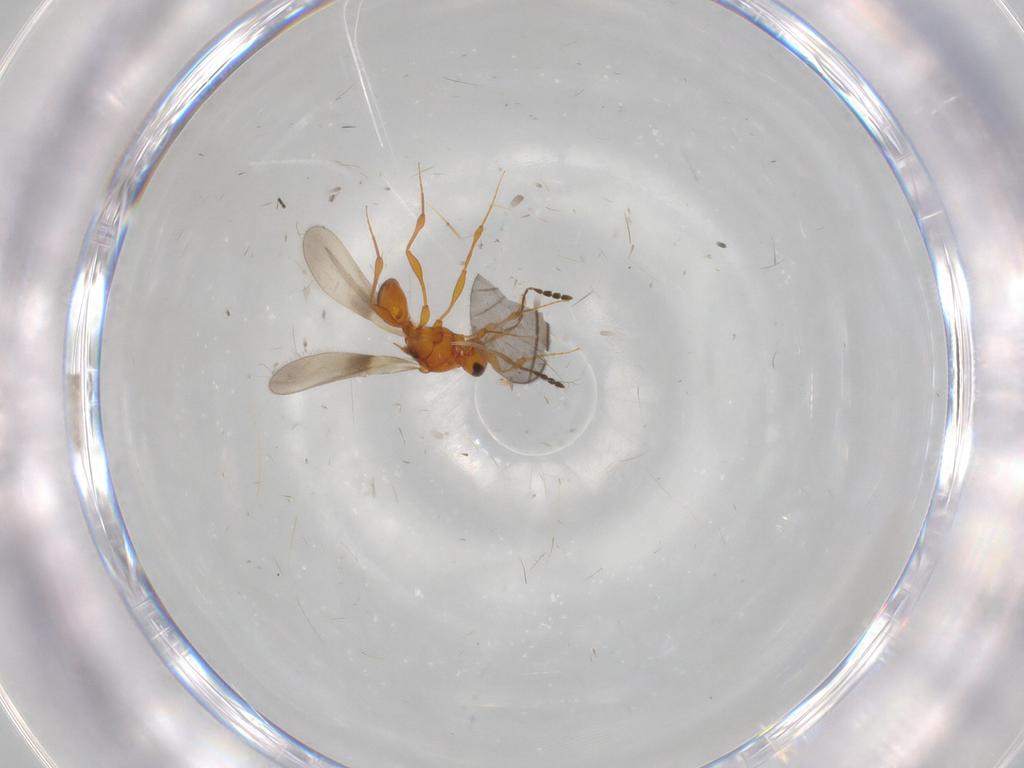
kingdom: Animalia
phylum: Arthropoda
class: Insecta
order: Hymenoptera
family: Platygastridae
